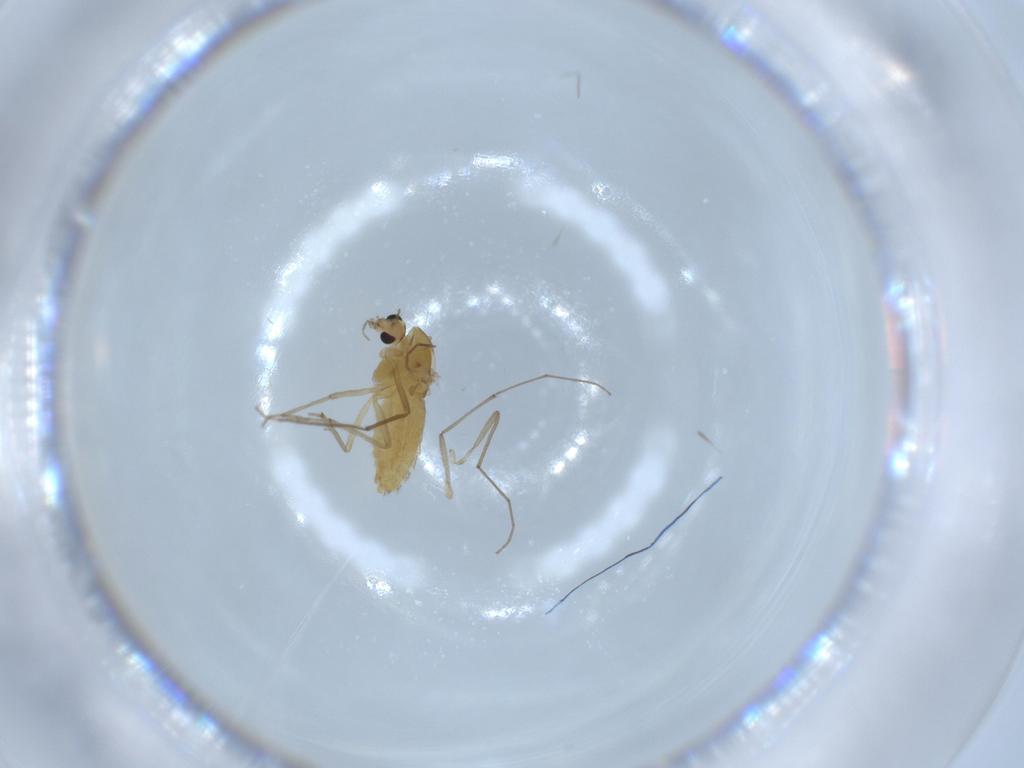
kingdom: Animalia
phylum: Arthropoda
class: Insecta
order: Diptera
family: Chironomidae
